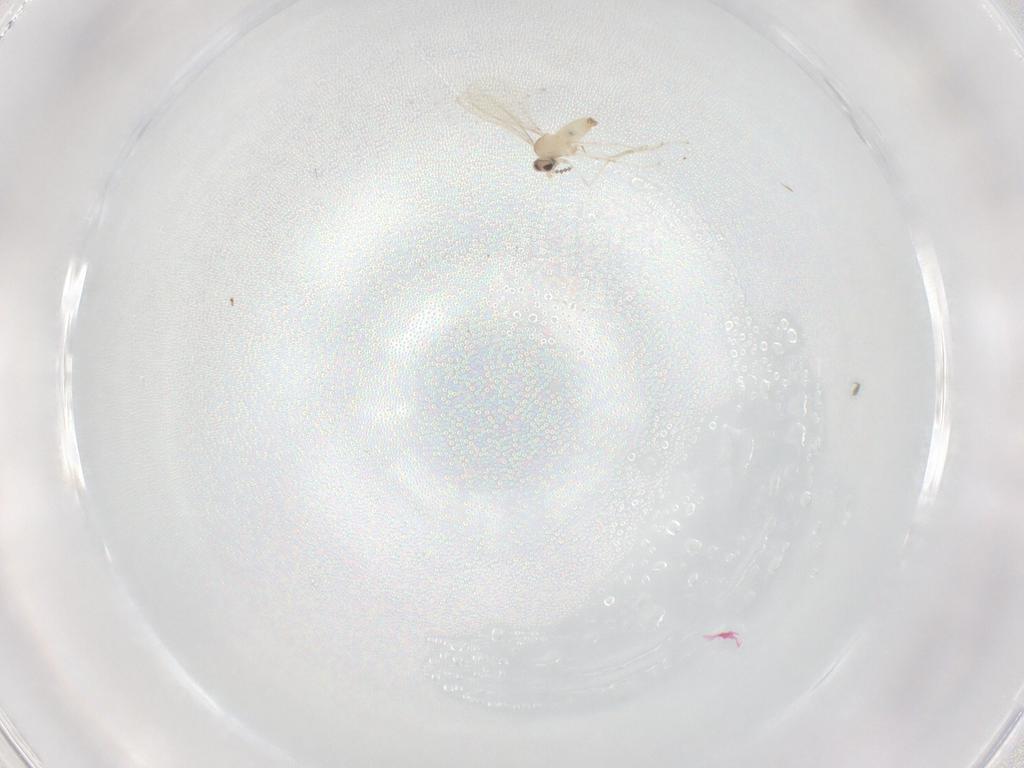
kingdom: Animalia
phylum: Arthropoda
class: Insecta
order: Diptera
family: Cecidomyiidae
